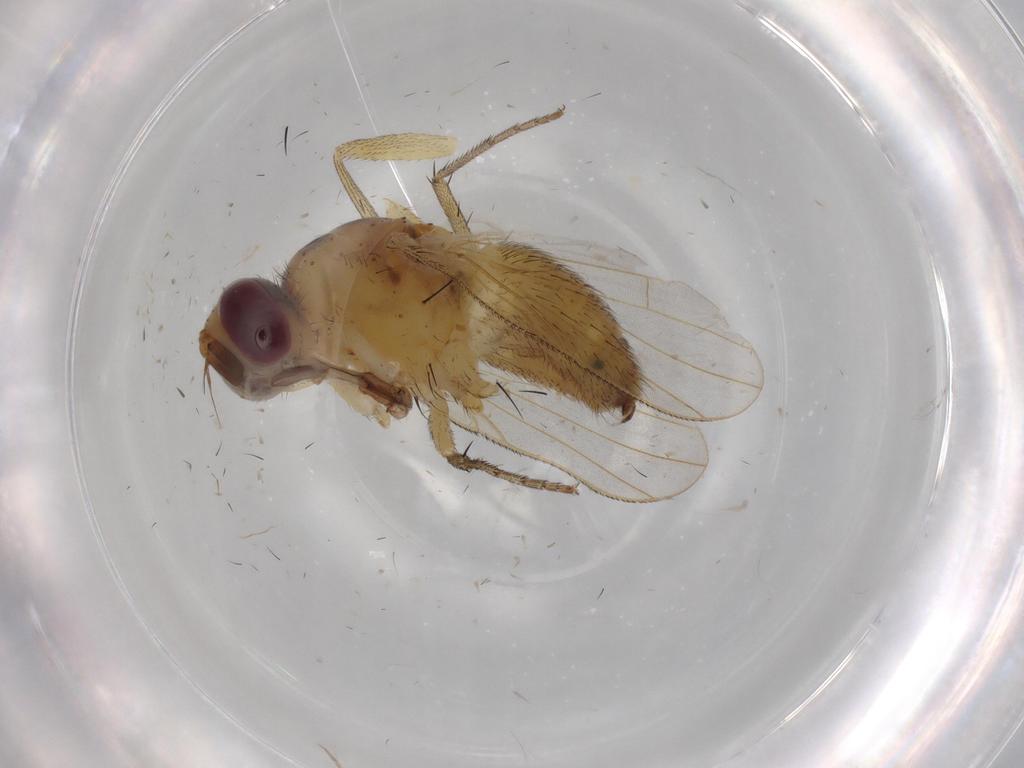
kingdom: Animalia
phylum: Arthropoda
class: Insecta
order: Diptera
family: Muscidae
